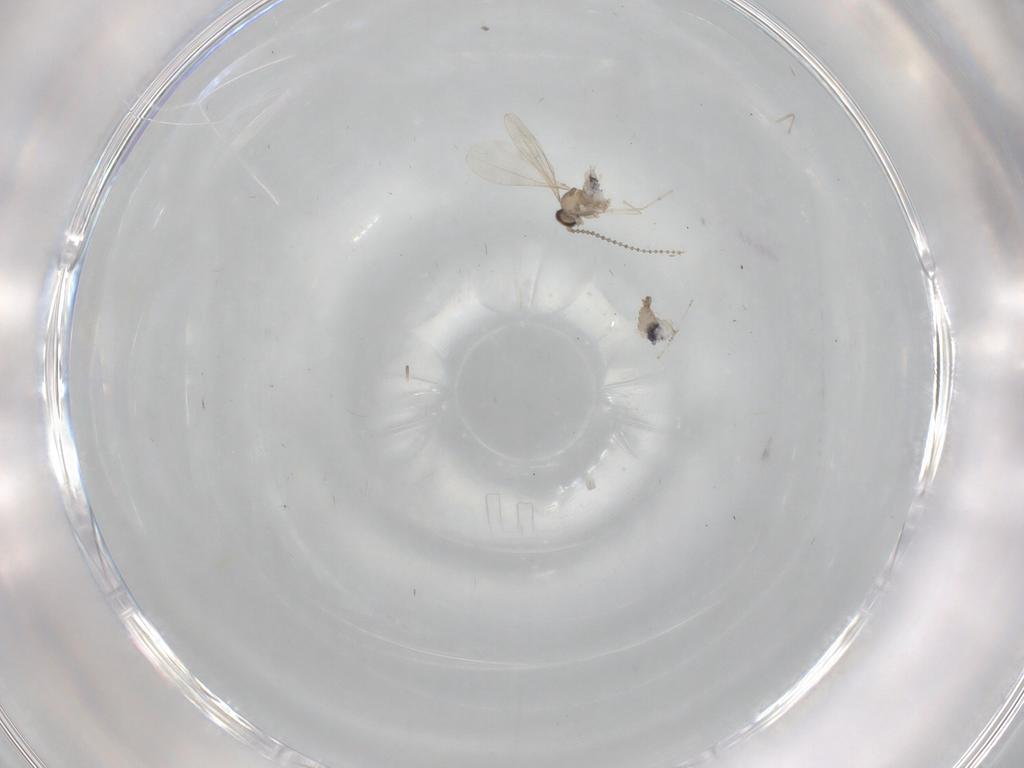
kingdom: Animalia
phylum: Arthropoda
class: Insecta
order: Diptera
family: Cecidomyiidae
